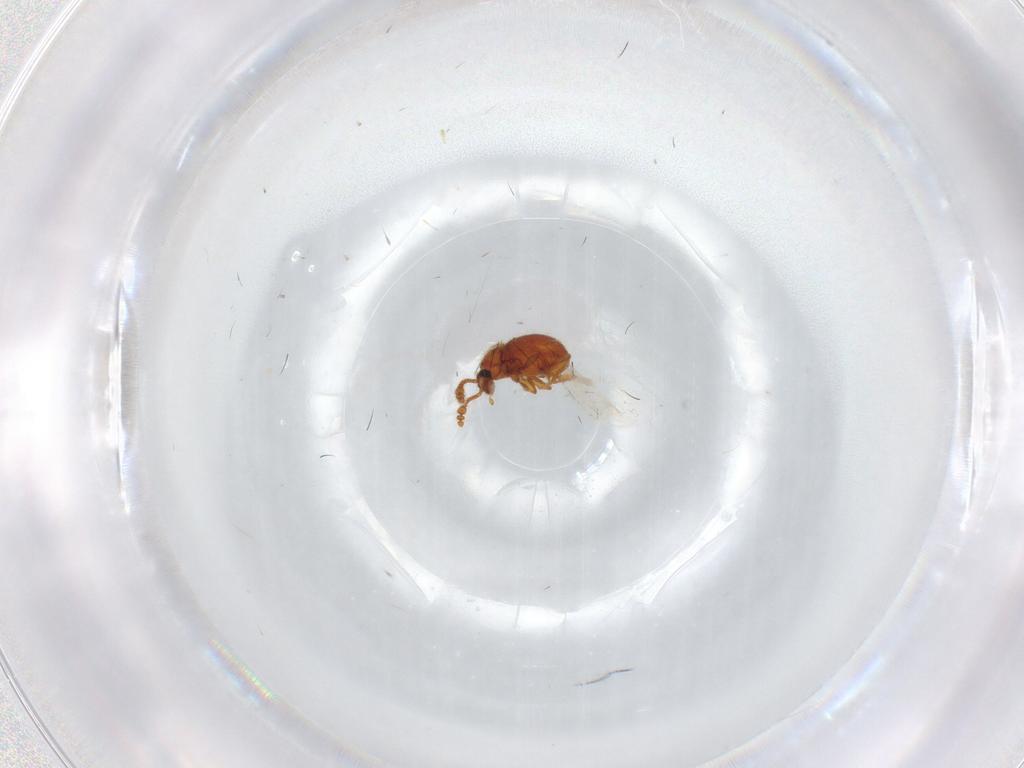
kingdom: Animalia
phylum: Arthropoda
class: Insecta
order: Coleoptera
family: Staphylinidae
